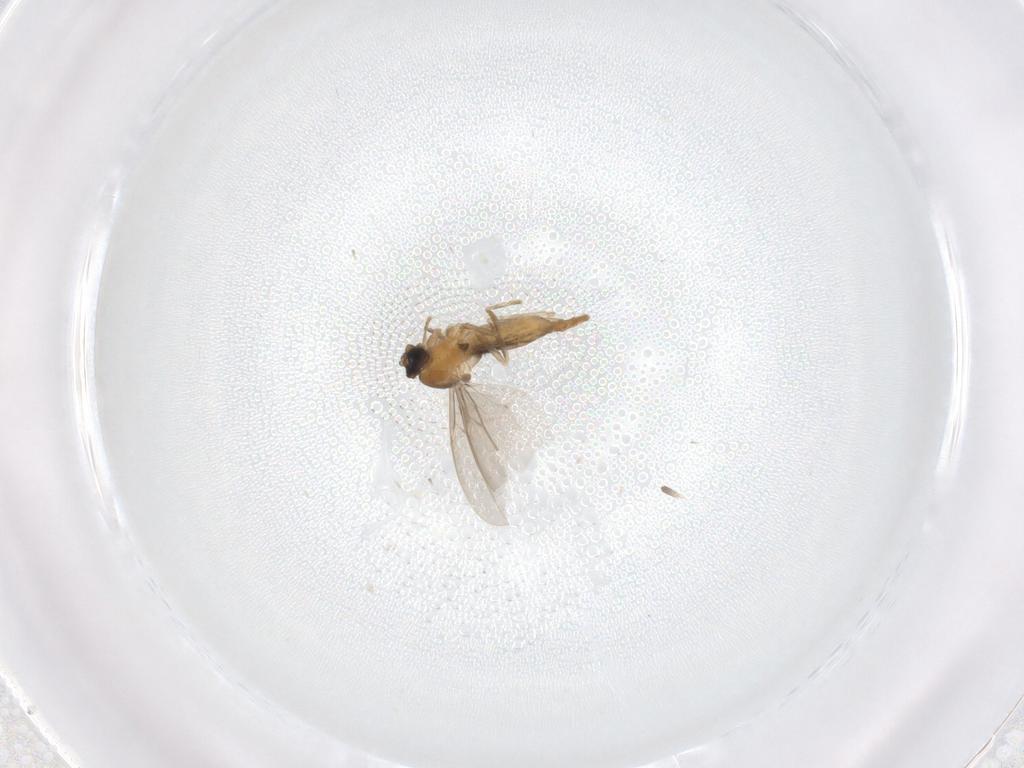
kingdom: Animalia
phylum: Arthropoda
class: Insecta
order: Diptera
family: Cecidomyiidae
